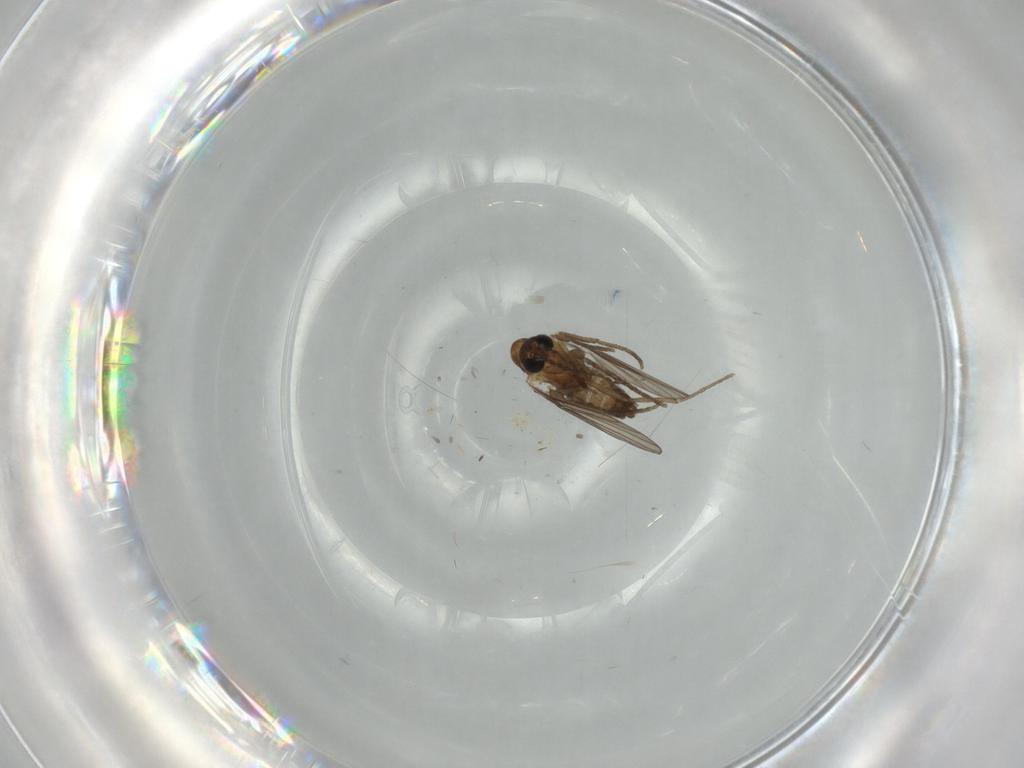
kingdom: Animalia
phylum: Arthropoda
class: Insecta
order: Diptera
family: Psychodidae
